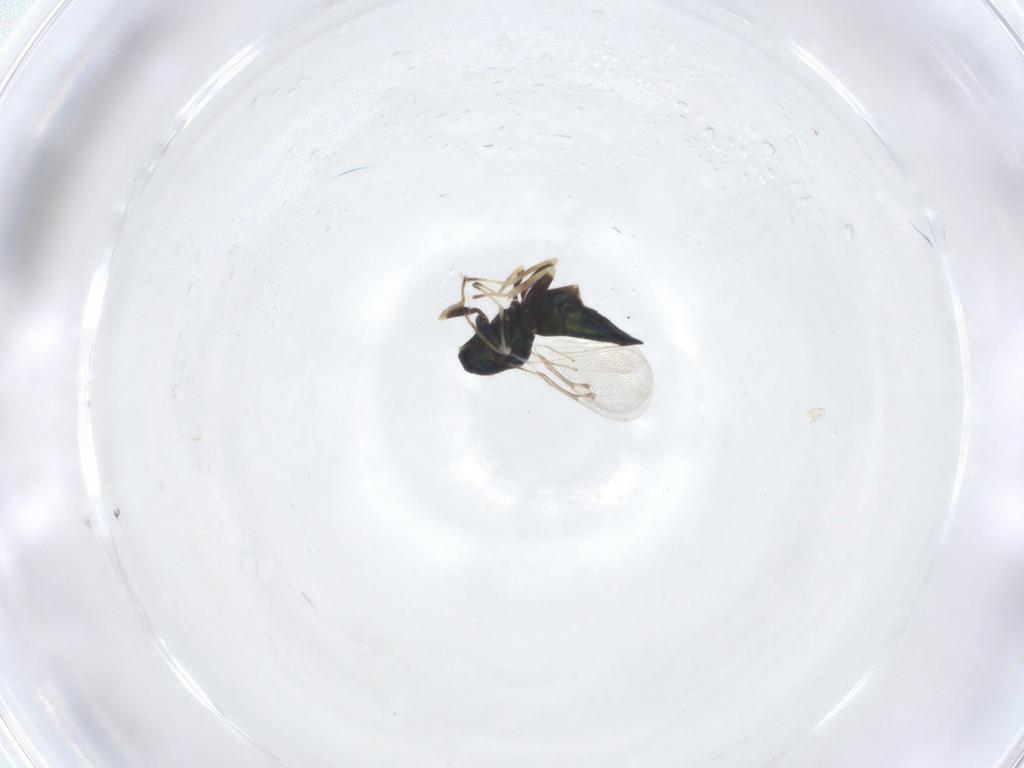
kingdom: Animalia
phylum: Arthropoda
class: Insecta
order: Hymenoptera
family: Eulophidae
